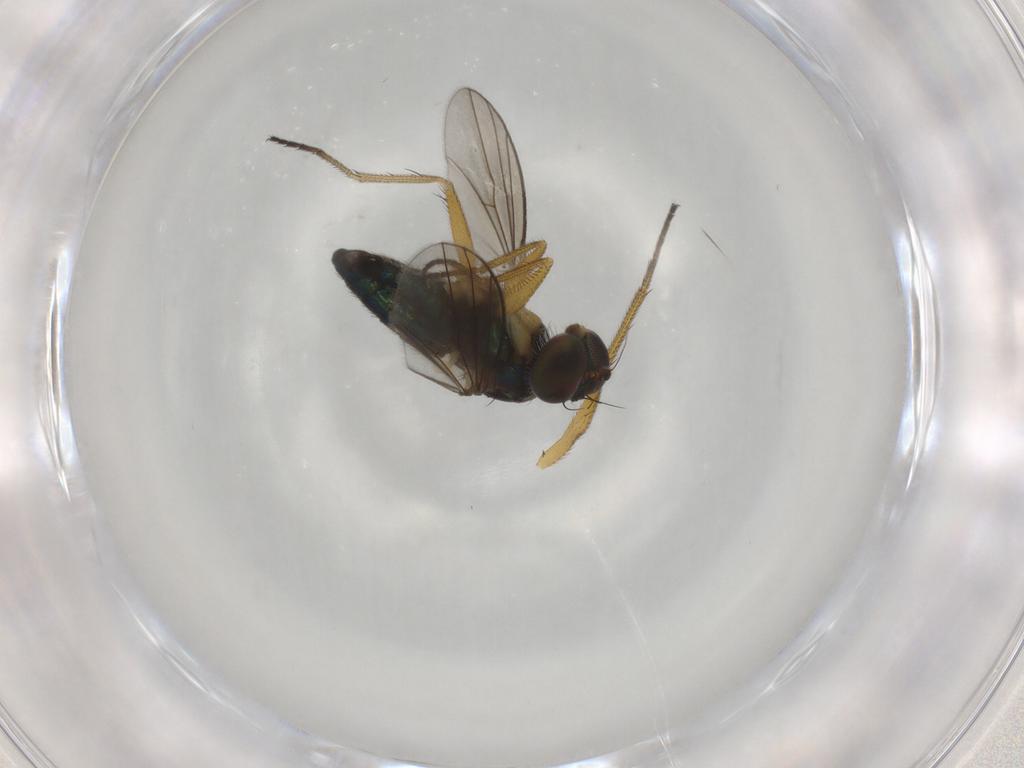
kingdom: Animalia
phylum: Arthropoda
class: Insecta
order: Diptera
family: Dolichopodidae
